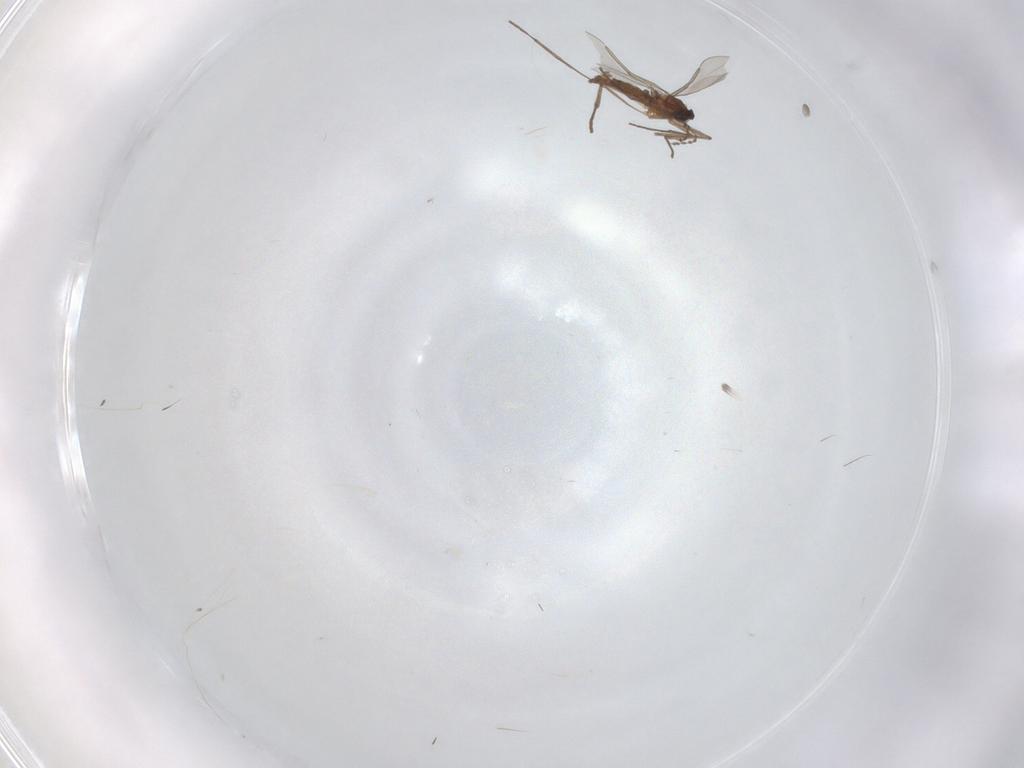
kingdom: Animalia
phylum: Arthropoda
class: Insecta
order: Diptera
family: Cecidomyiidae
